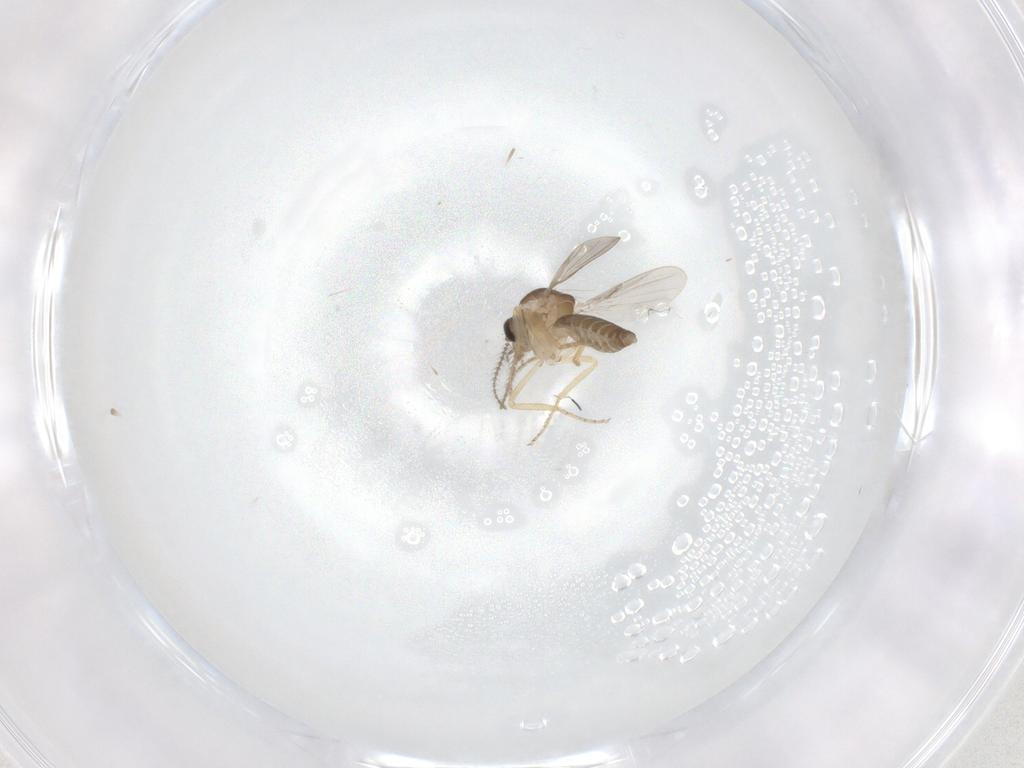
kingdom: Animalia
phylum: Arthropoda
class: Insecta
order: Diptera
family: Ceratopogonidae
